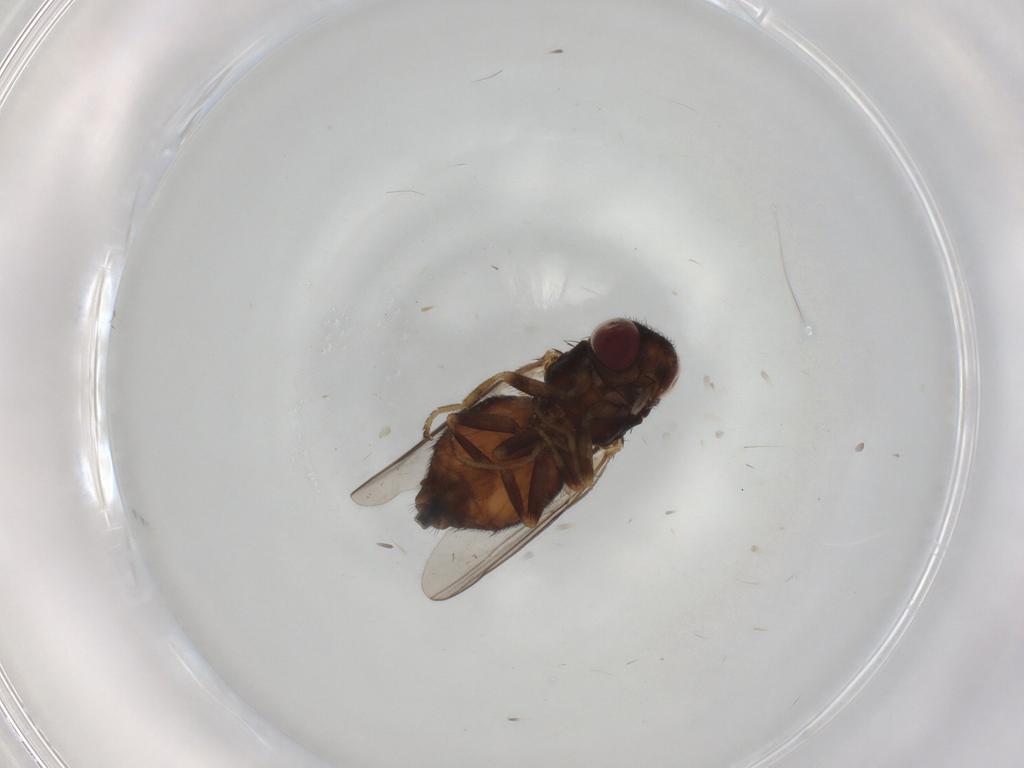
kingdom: Animalia
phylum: Arthropoda
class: Insecta
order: Diptera
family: Chloropidae
